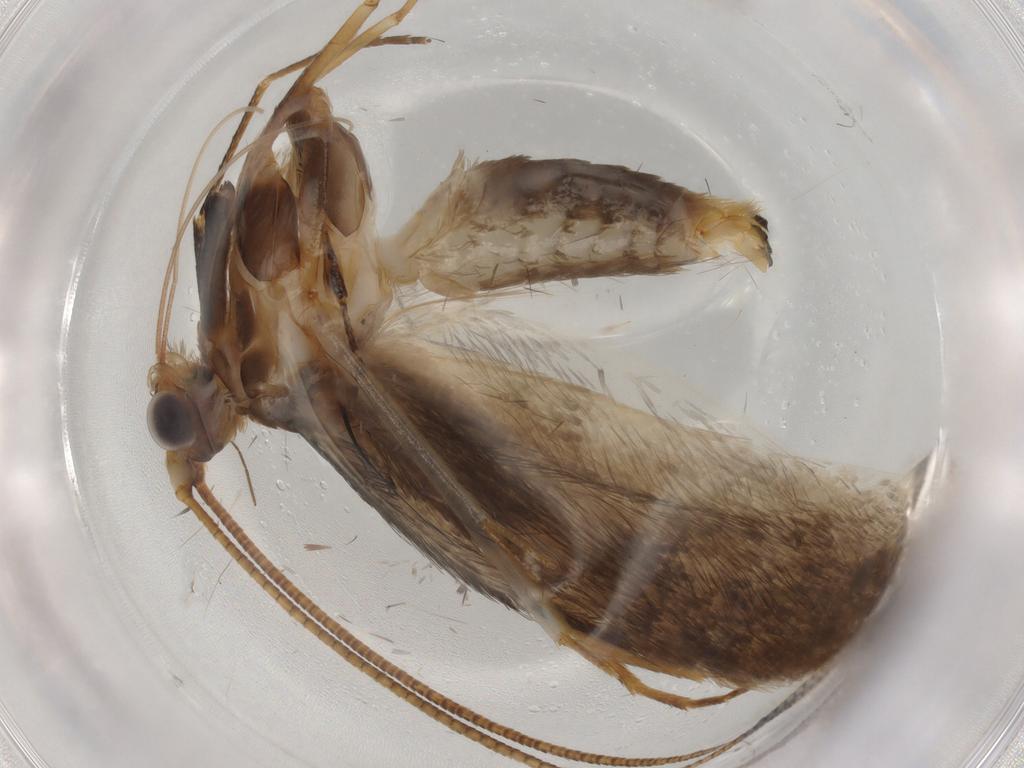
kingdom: Animalia
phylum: Arthropoda
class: Insecta
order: Lepidoptera
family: Adelidae
